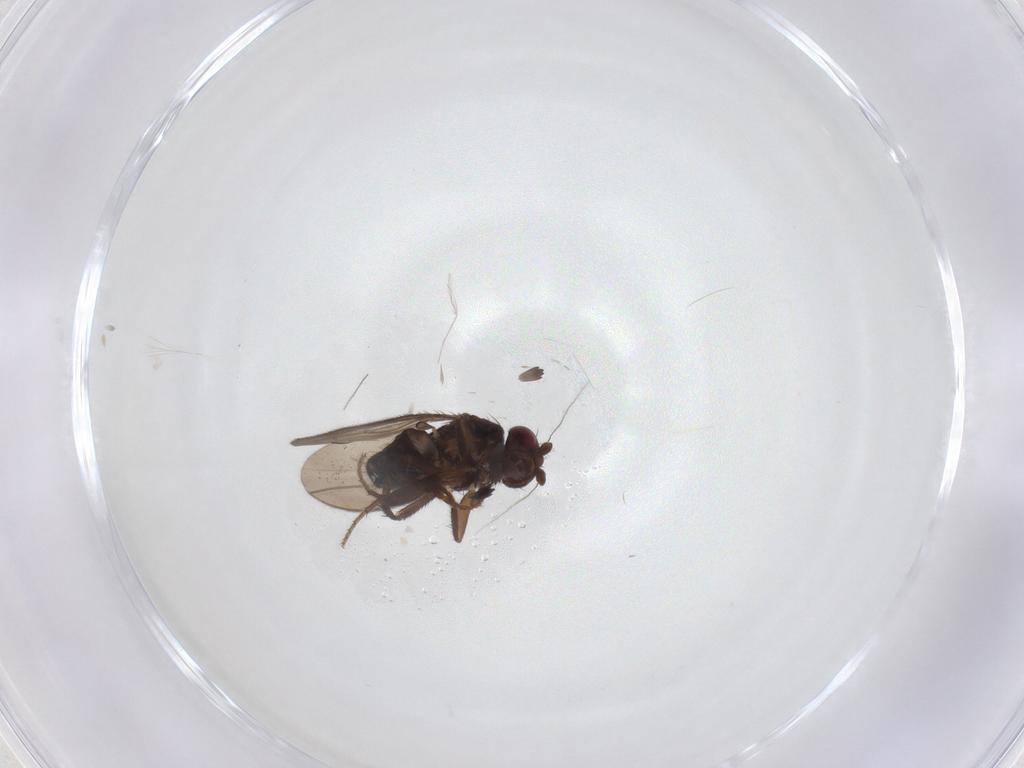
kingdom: Animalia
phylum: Arthropoda
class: Insecta
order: Diptera
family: Sphaeroceridae
